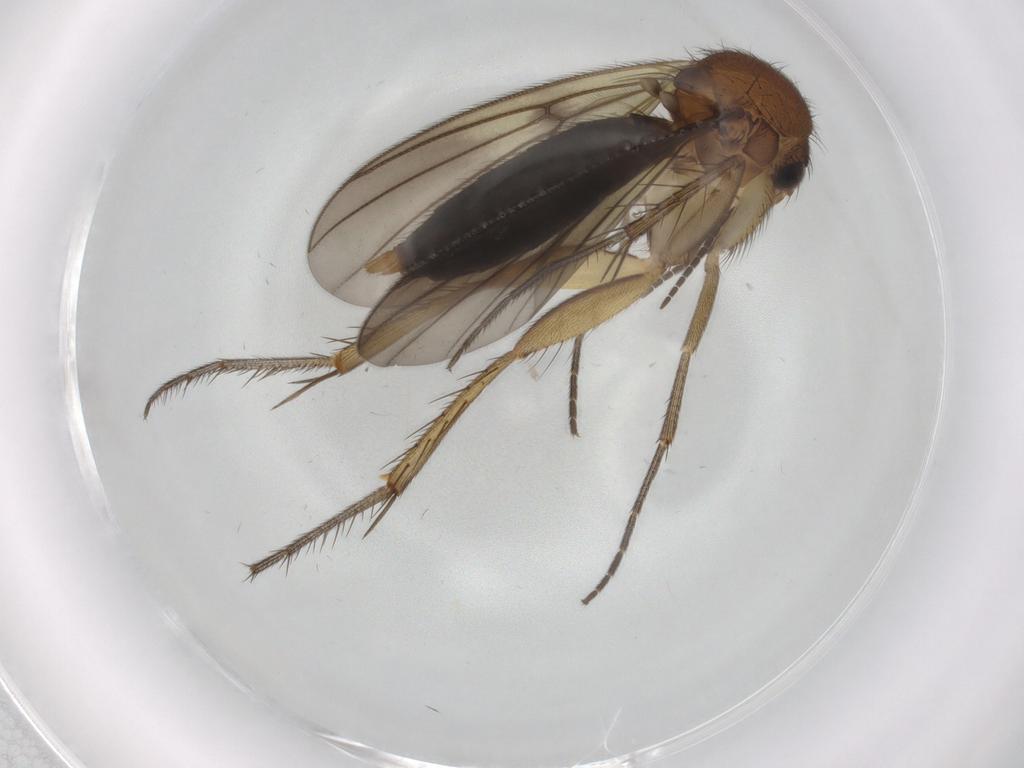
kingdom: Animalia
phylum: Arthropoda
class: Insecta
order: Diptera
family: Mycetophilidae
